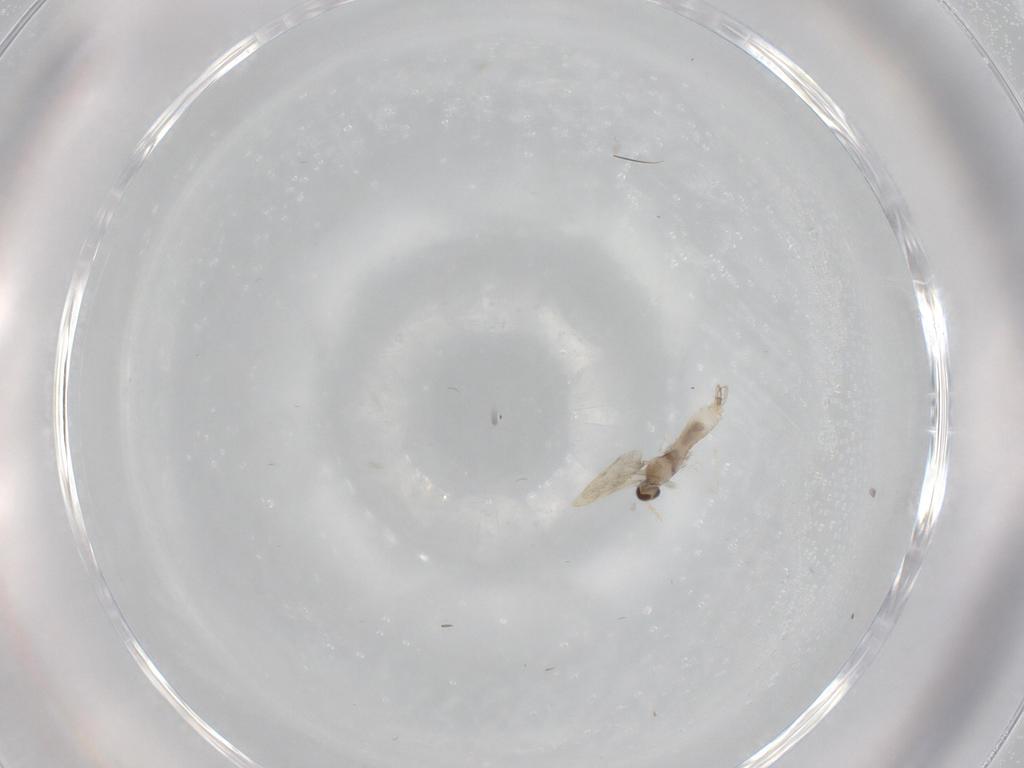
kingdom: Animalia
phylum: Arthropoda
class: Insecta
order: Diptera
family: Cecidomyiidae
